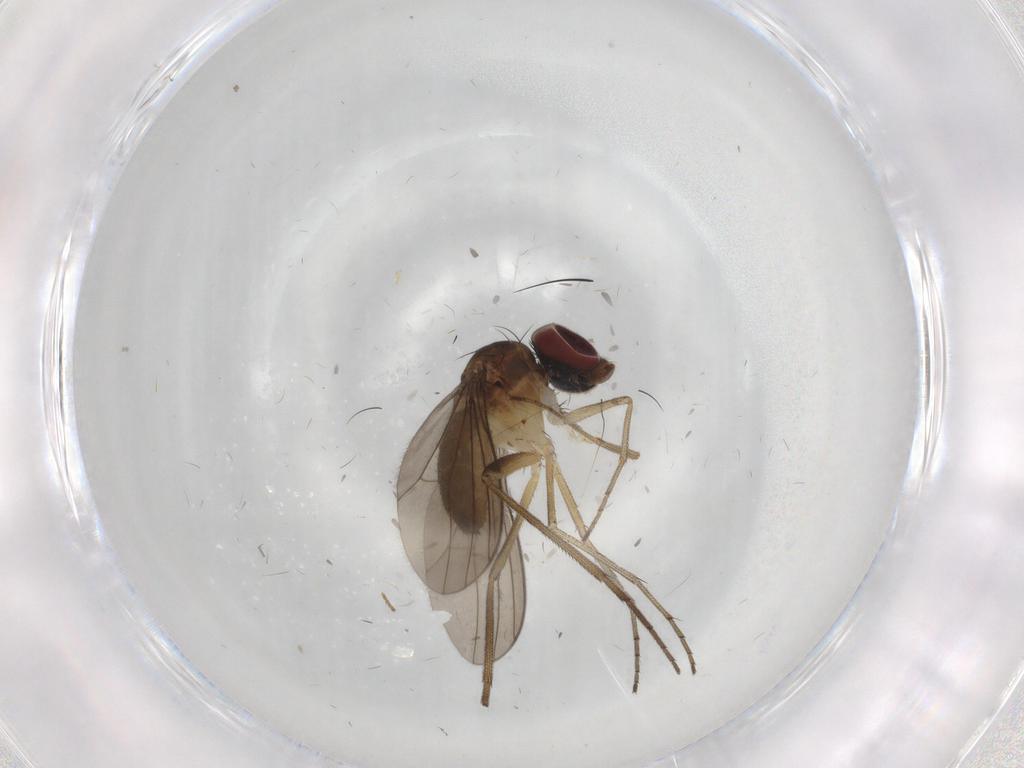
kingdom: Animalia
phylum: Arthropoda
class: Insecta
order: Diptera
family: Dolichopodidae
